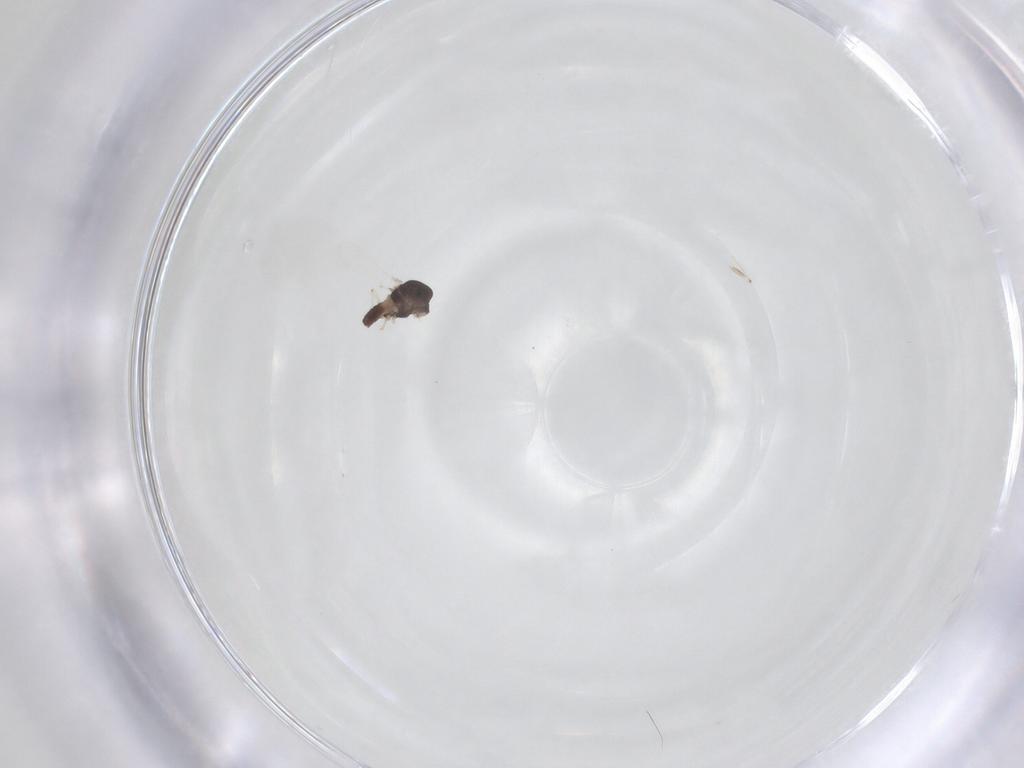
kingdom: Animalia
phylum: Arthropoda
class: Insecta
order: Diptera
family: Chironomidae
